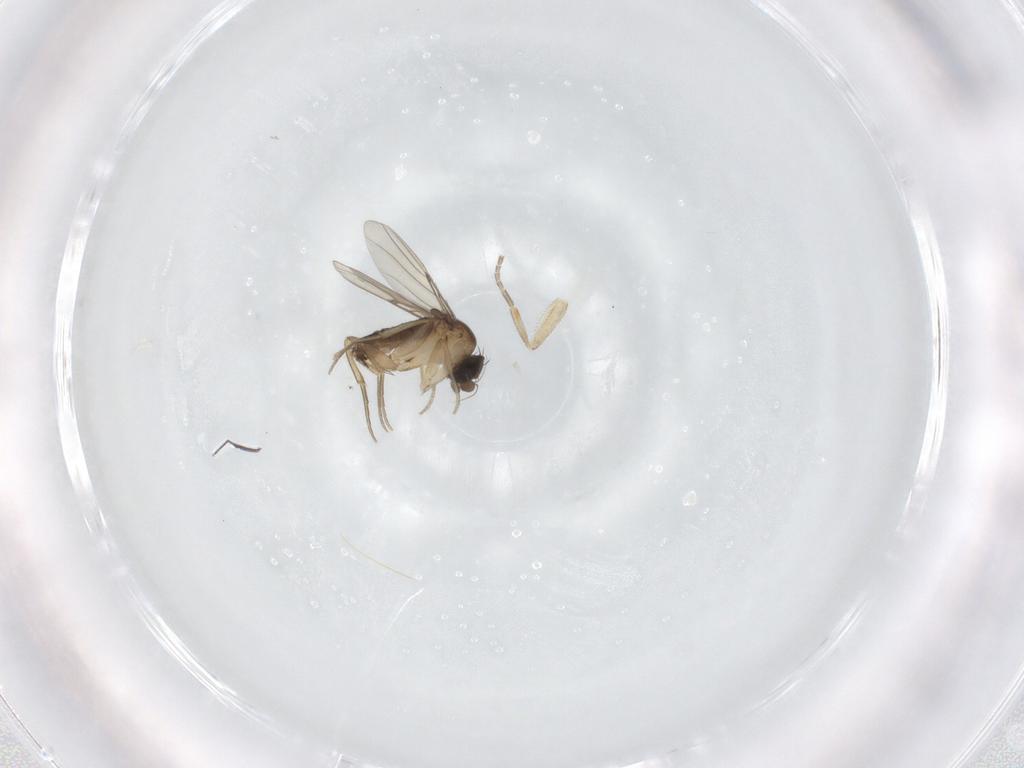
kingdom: Animalia
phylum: Arthropoda
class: Insecta
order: Diptera
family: Phoridae
